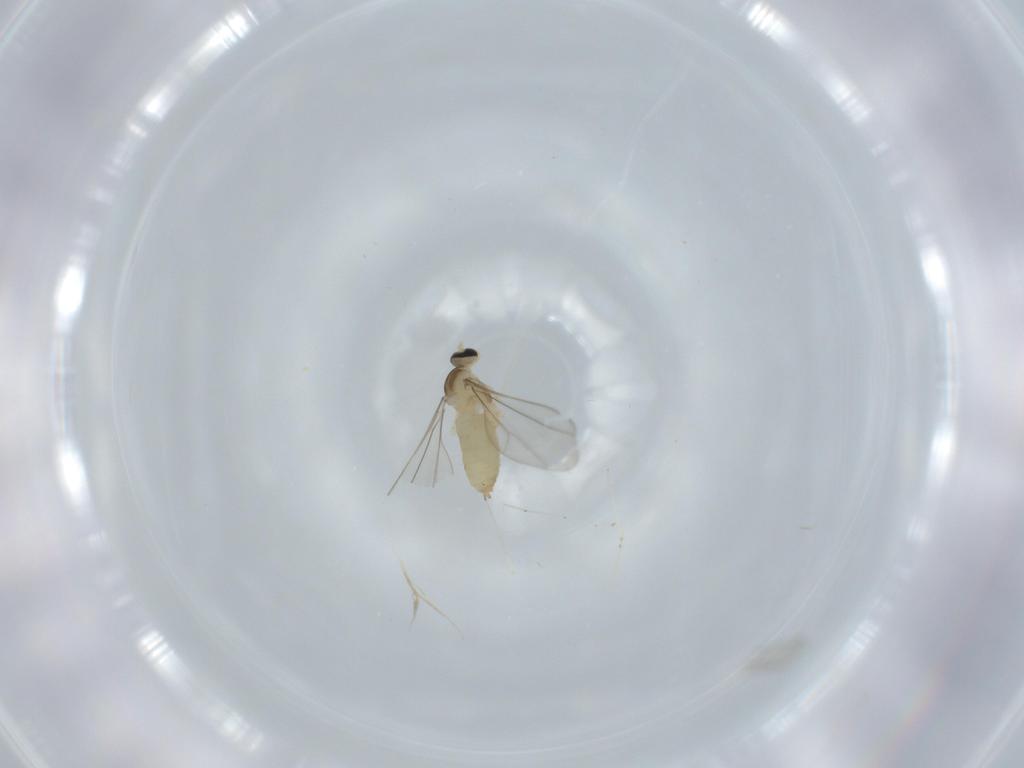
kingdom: Animalia
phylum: Arthropoda
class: Insecta
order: Diptera
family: Cecidomyiidae
